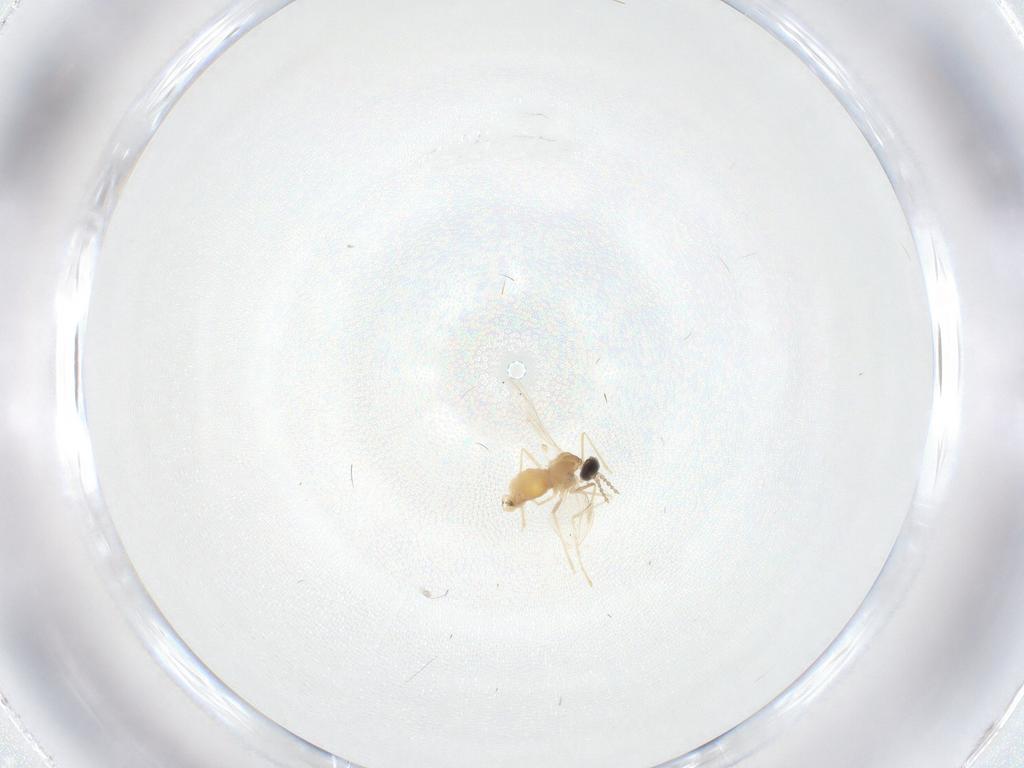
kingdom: Animalia
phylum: Arthropoda
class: Insecta
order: Diptera
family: Cecidomyiidae
